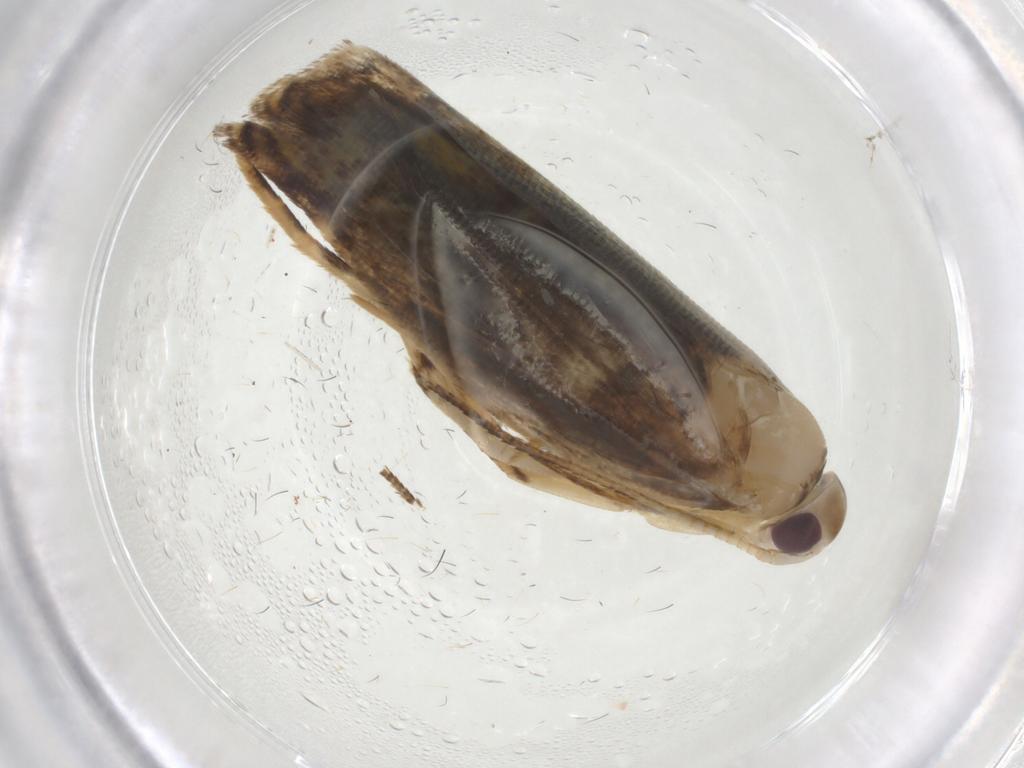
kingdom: Animalia
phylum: Arthropoda
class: Insecta
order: Lepidoptera
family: Gelechiidae
